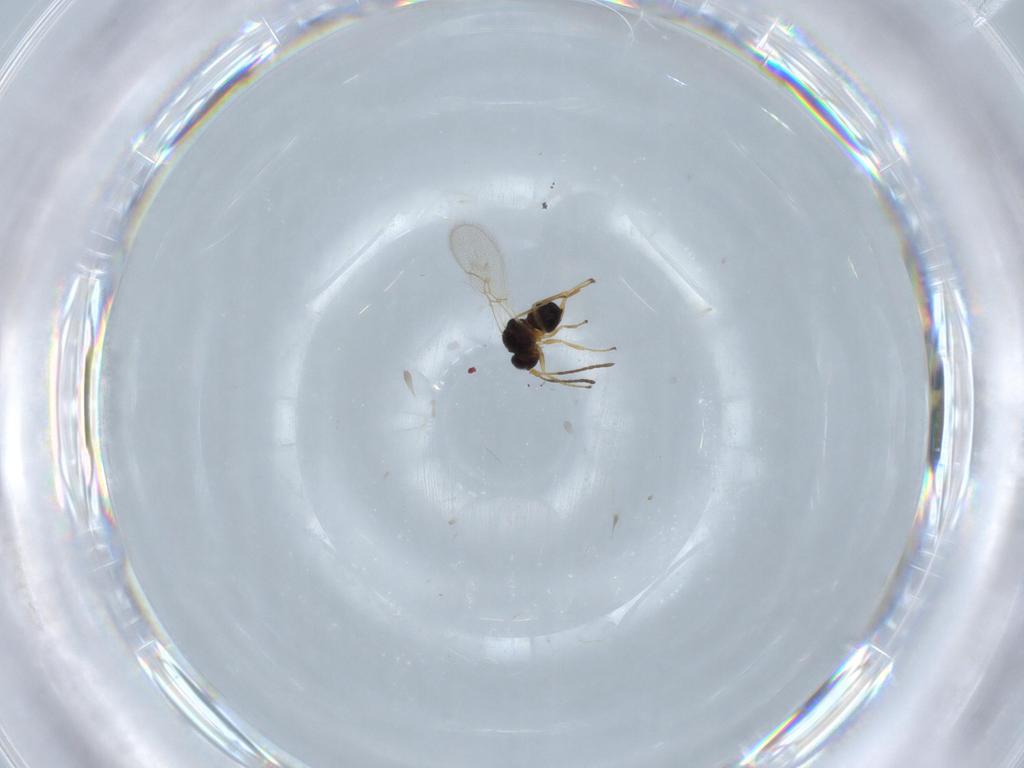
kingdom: Animalia
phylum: Arthropoda
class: Insecta
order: Hymenoptera
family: Figitidae
